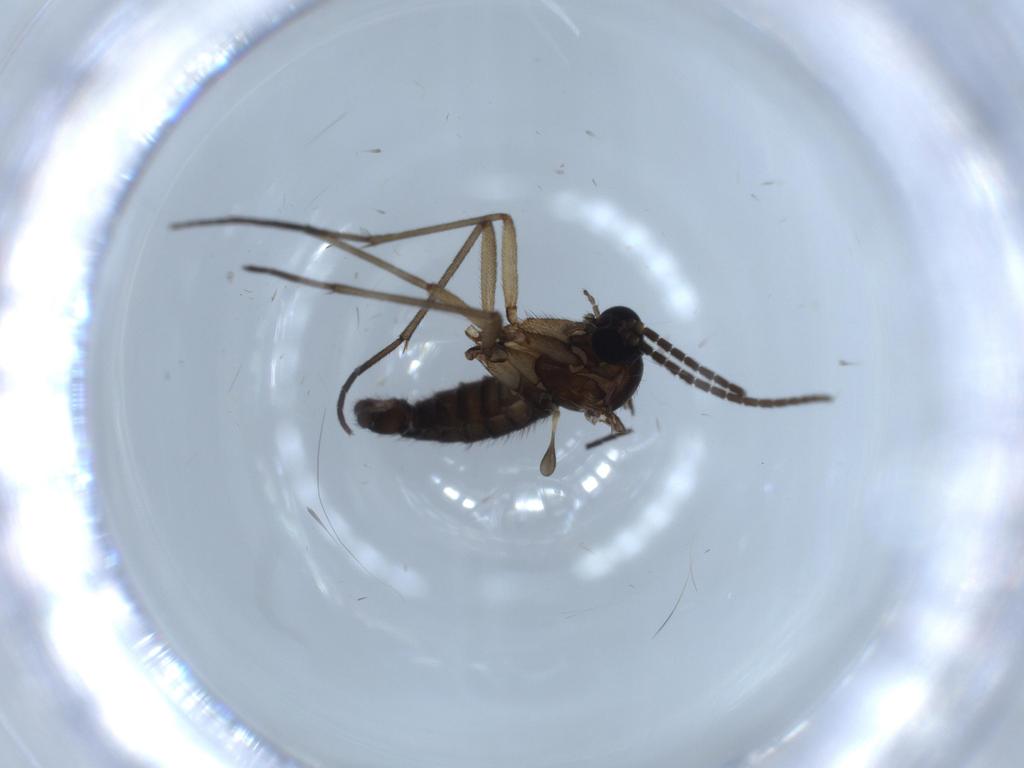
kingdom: Animalia
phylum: Arthropoda
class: Insecta
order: Diptera
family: Sciaridae
